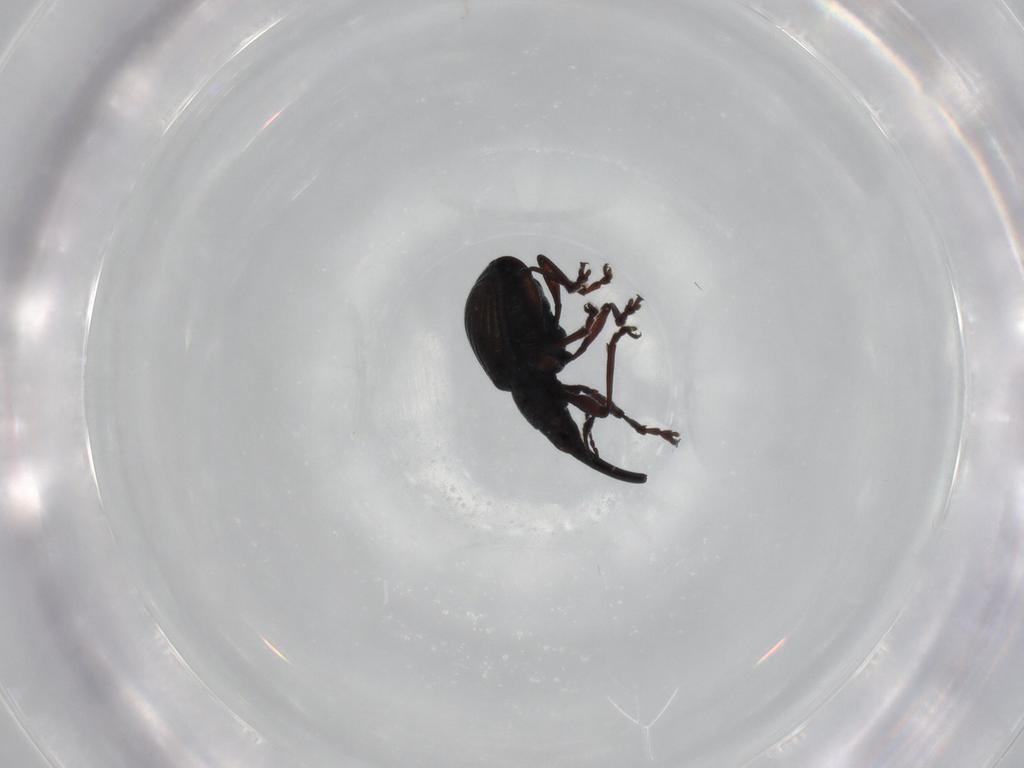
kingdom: Animalia
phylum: Arthropoda
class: Insecta
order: Coleoptera
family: Brentidae
